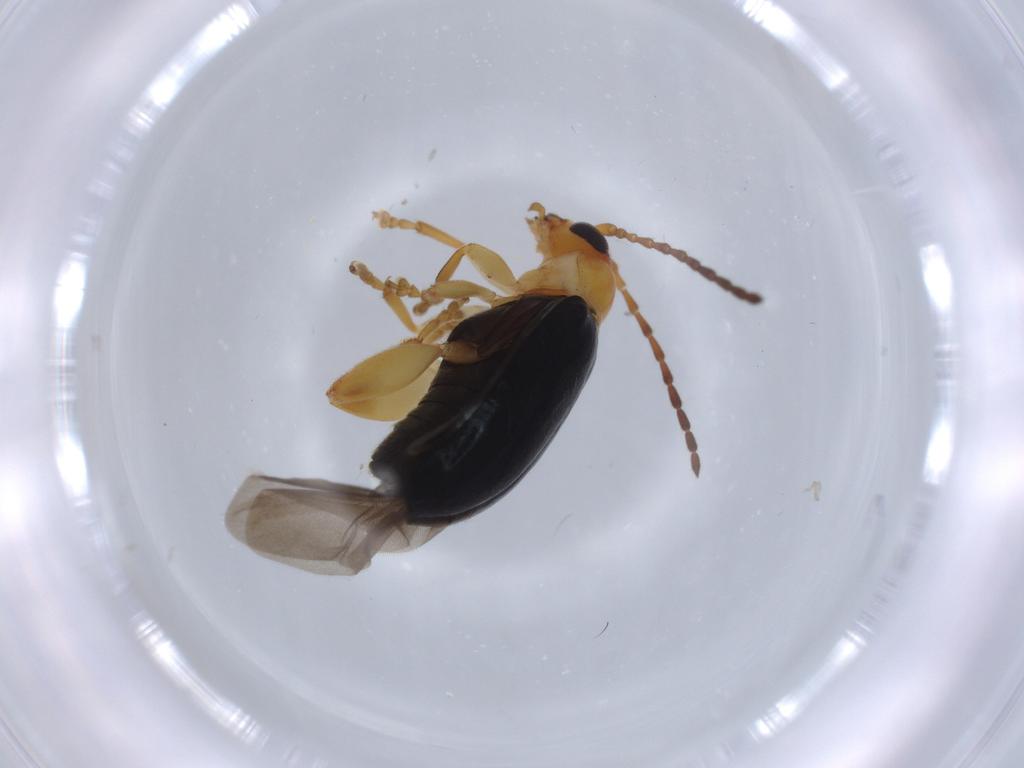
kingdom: Animalia
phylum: Arthropoda
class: Insecta
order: Coleoptera
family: Chrysomelidae
